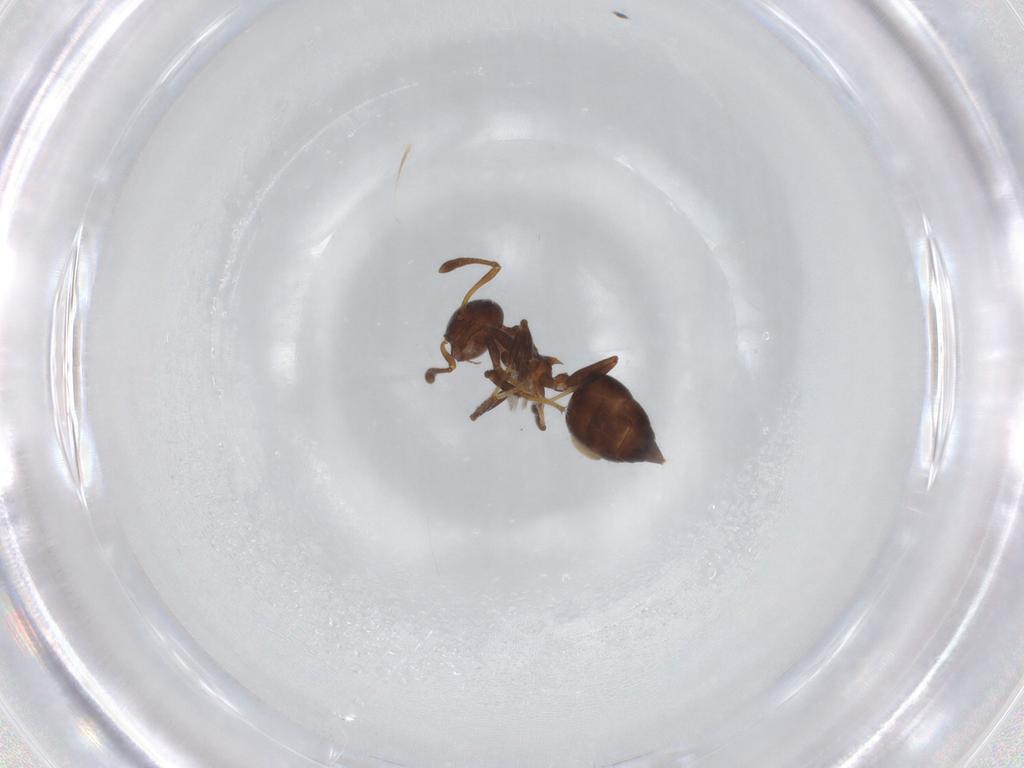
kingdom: Animalia
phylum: Arthropoda
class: Insecta
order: Hymenoptera
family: Formicidae
